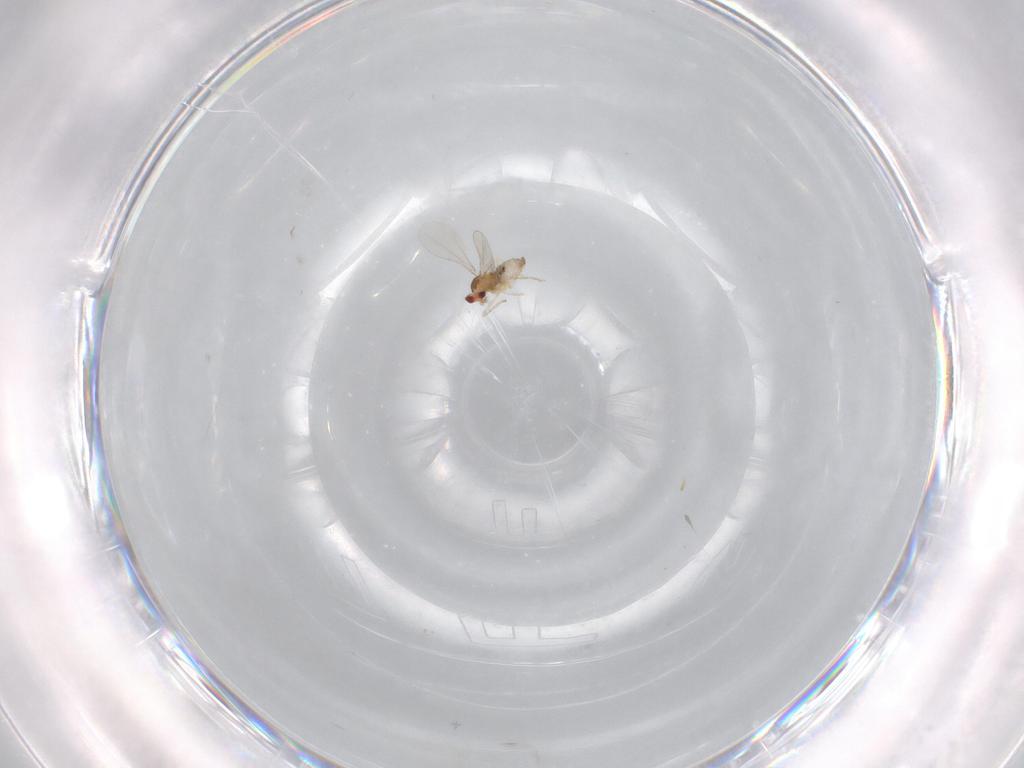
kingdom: Animalia
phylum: Arthropoda
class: Insecta
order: Diptera
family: Cecidomyiidae
